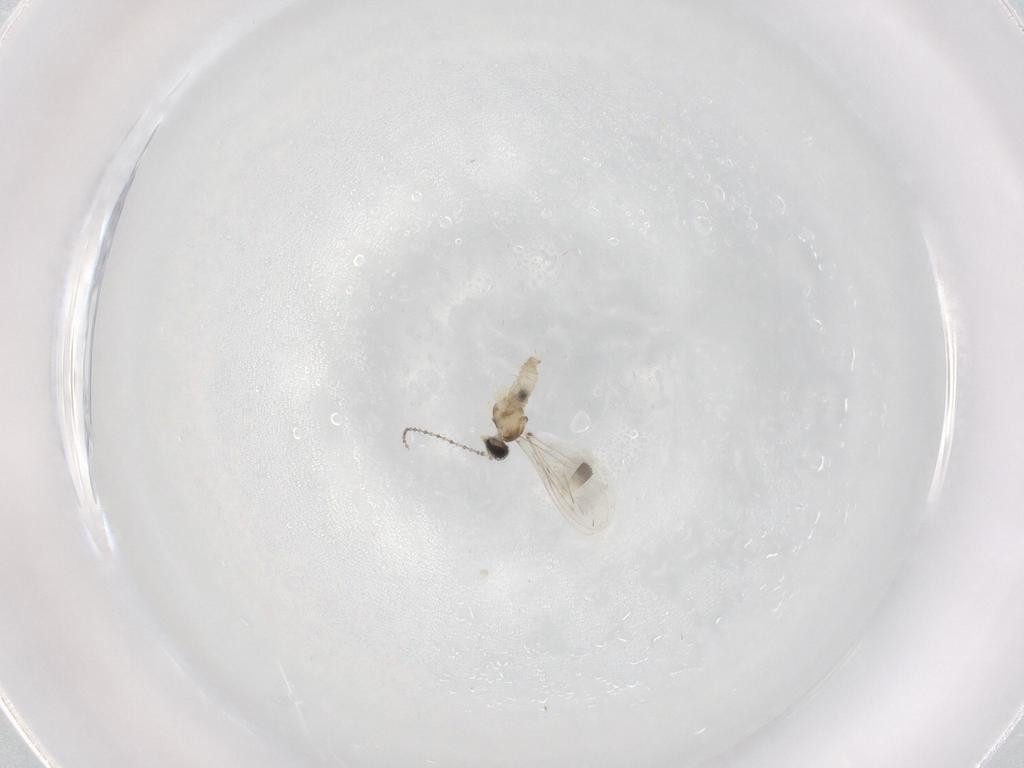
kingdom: Animalia
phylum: Arthropoda
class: Insecta
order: Diptera
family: Cecidomyiidae
